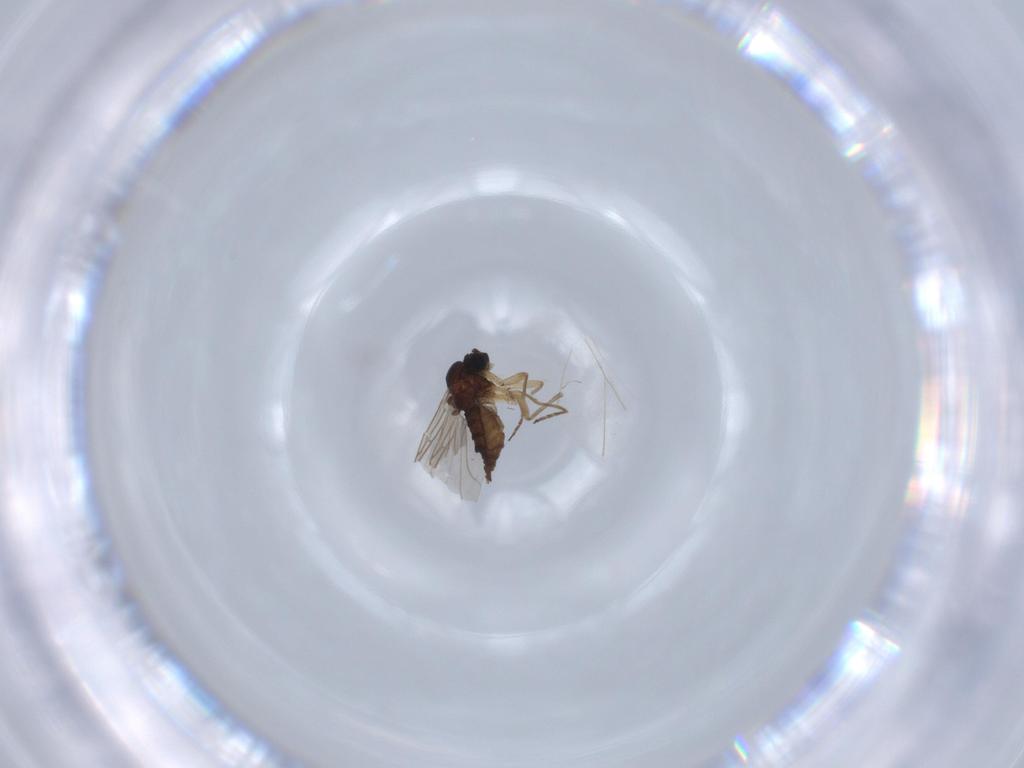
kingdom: Animalia
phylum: Arthropoda
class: Insecta
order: Diptera
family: Sciaridae
